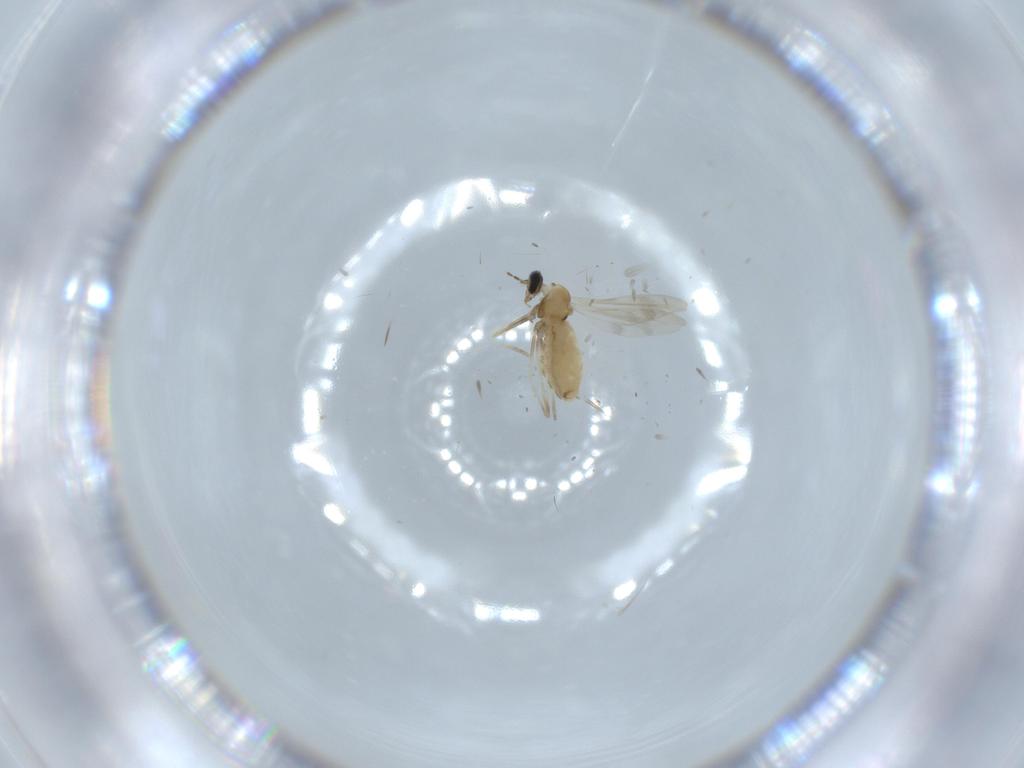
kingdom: Animalia
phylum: Arthropoda
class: Insecta
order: Diptera
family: Cecidomyiidae
